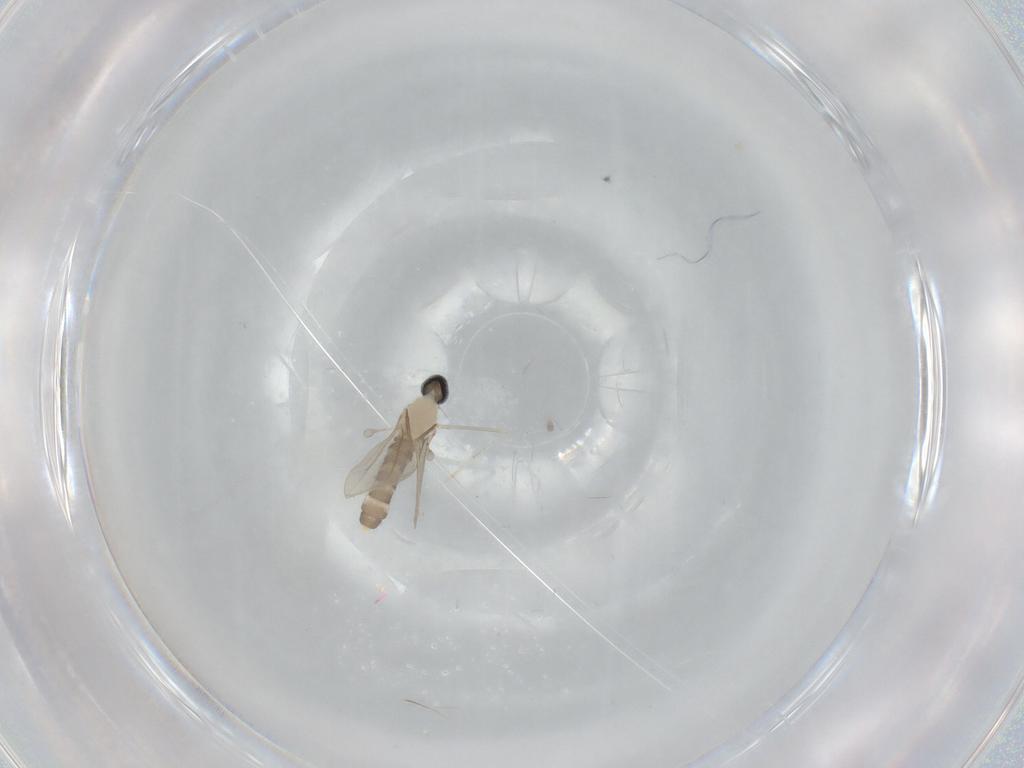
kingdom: Animalia
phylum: Arthropoda
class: Insecta
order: Diptera
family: Cecidomyiidae
